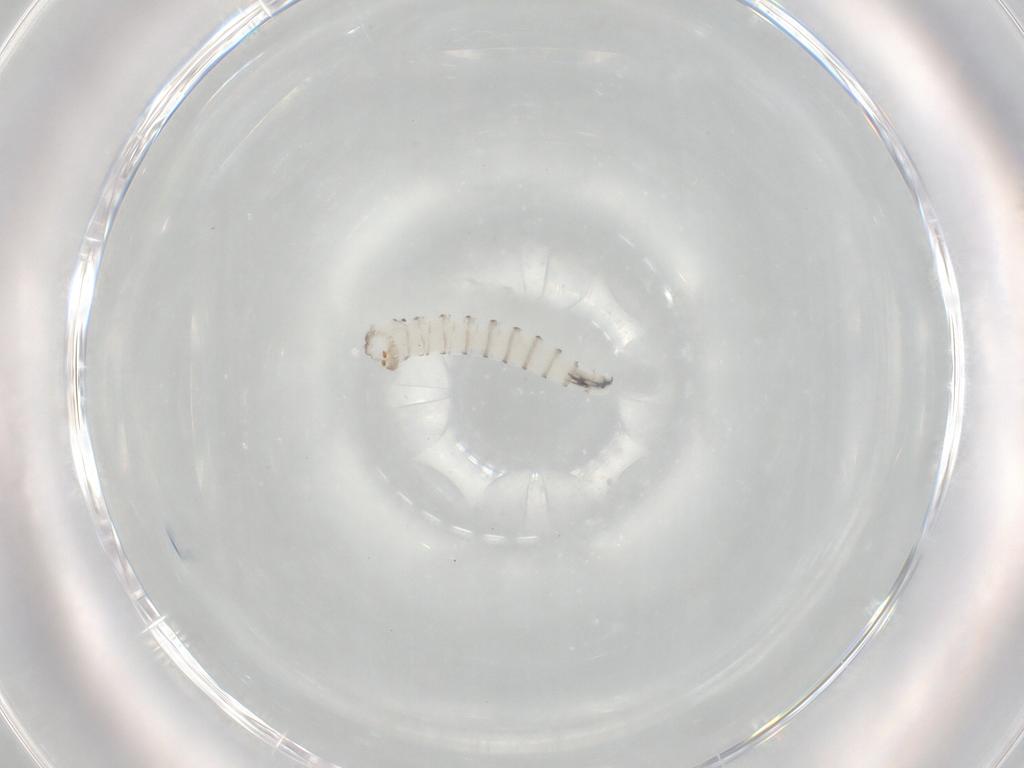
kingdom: Animalia
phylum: Arthropoda
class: Insecta
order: Diptera
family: Sarcophagidae
